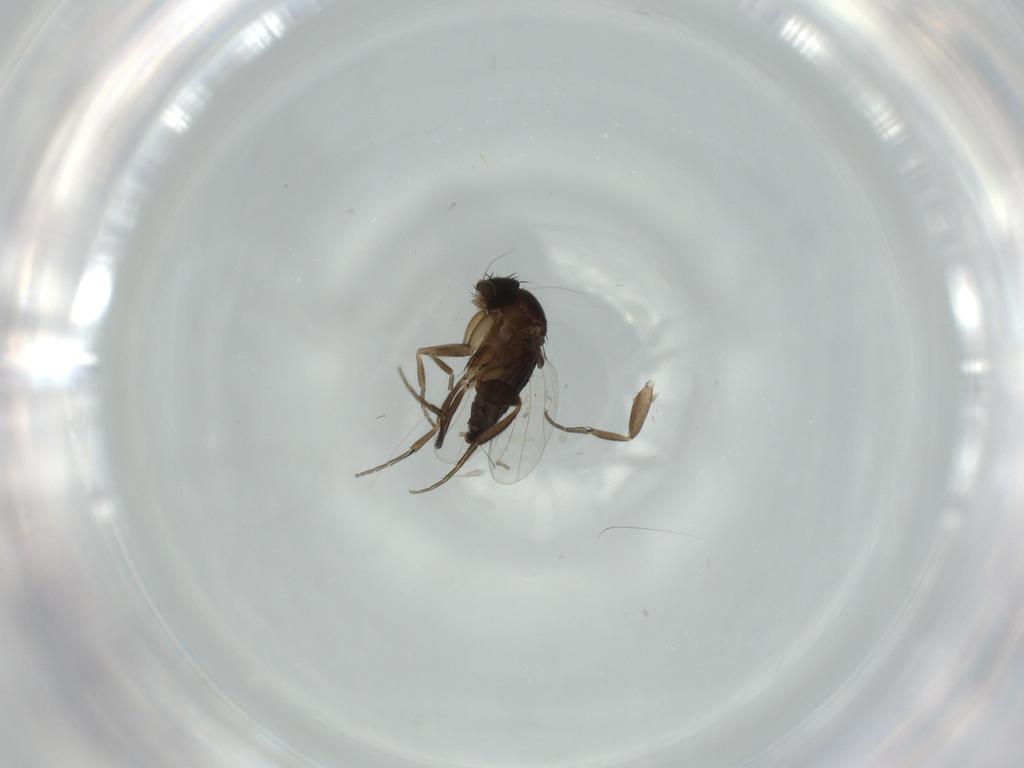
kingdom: Animalia
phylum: Arthropoda
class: Insecta
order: Diptera
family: Phoridae
